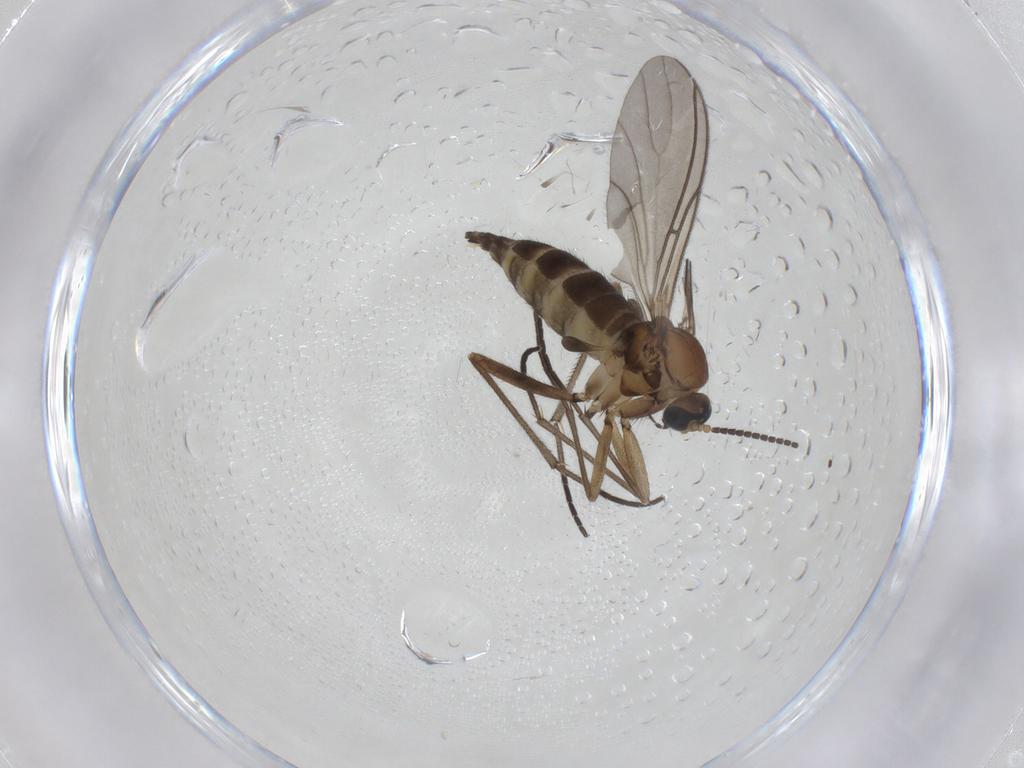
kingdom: Animalia
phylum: Arthropoda
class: Insecta
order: Diptera
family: Sciaridae
